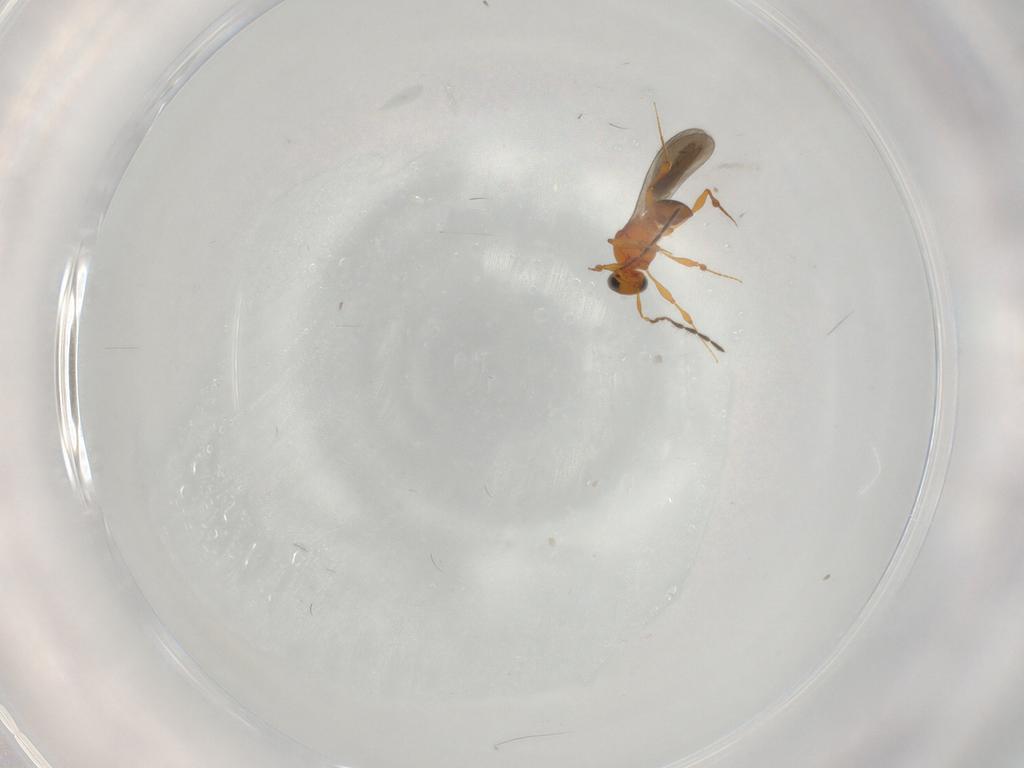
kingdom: Animalia
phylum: Arthropoda
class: Insecta
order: Hymenoptera
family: Platygastridae
